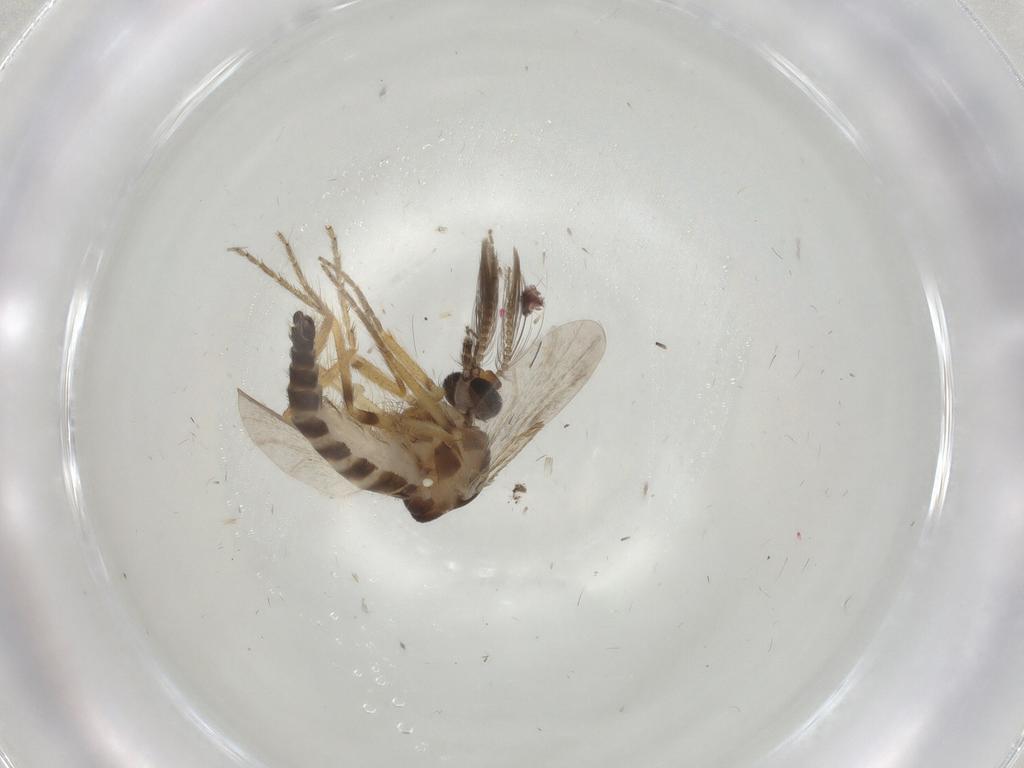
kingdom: Animalia
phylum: Arthropoda
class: Insecta
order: Diptera
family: Ceratopogonidae
